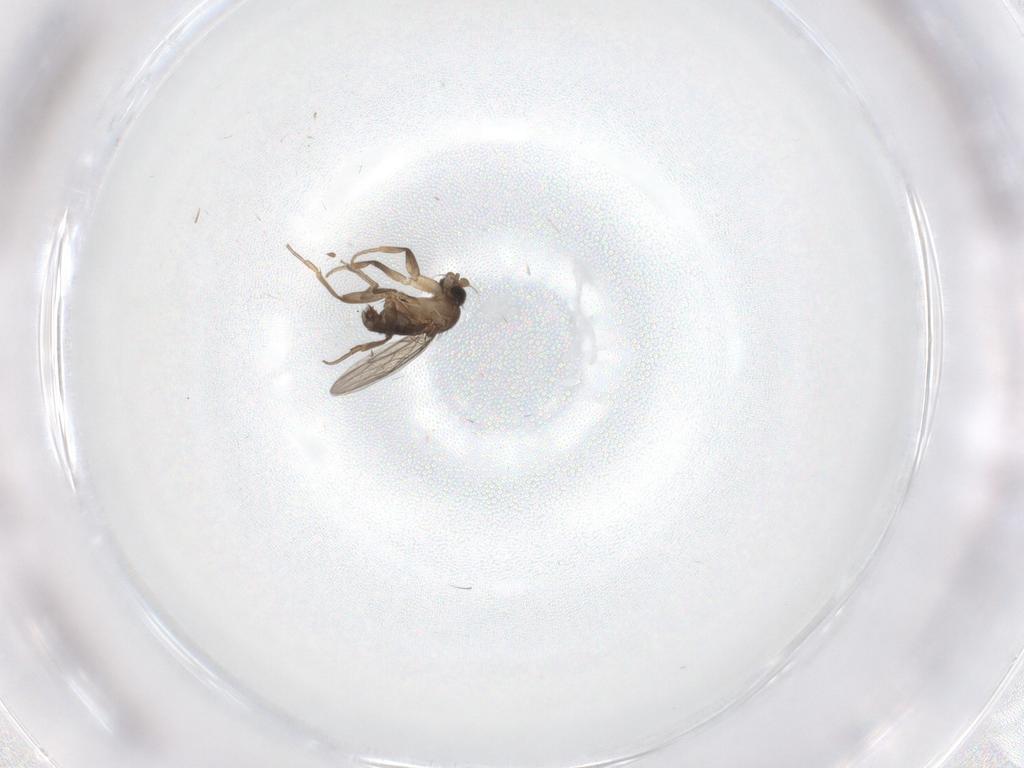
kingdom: Animalia
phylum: Arthropoda
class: Insecta
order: Diptera
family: Phoridae
